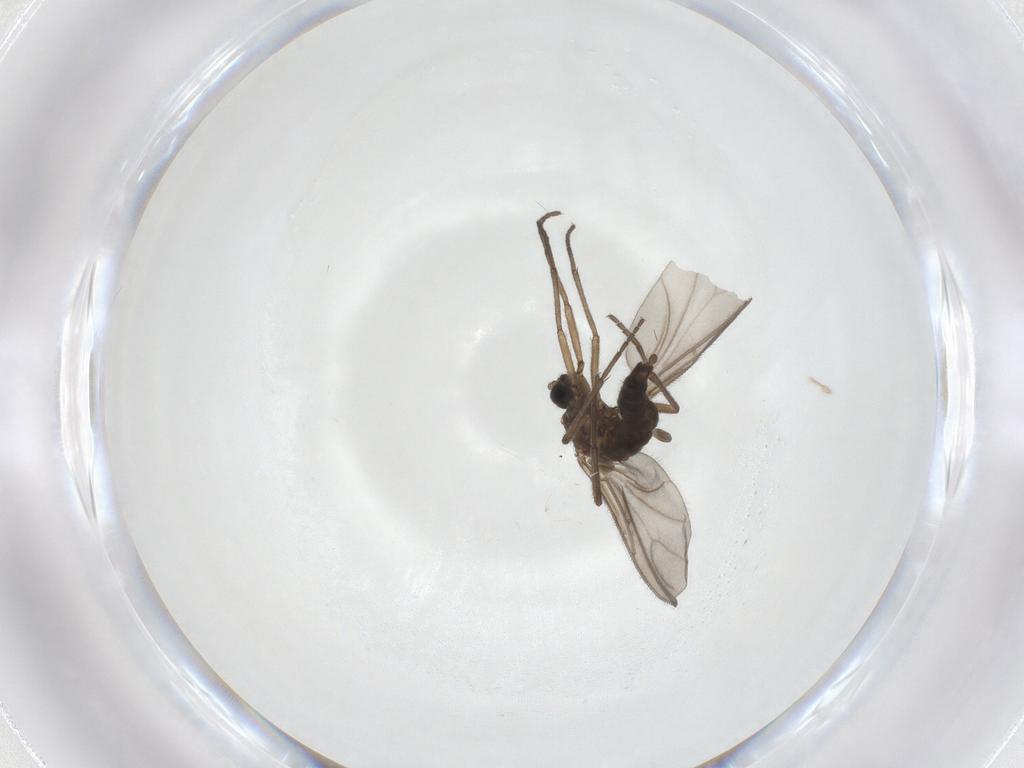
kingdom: Animalia
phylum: Arthropoda
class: Insecta
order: Diptera
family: Sciaridae
